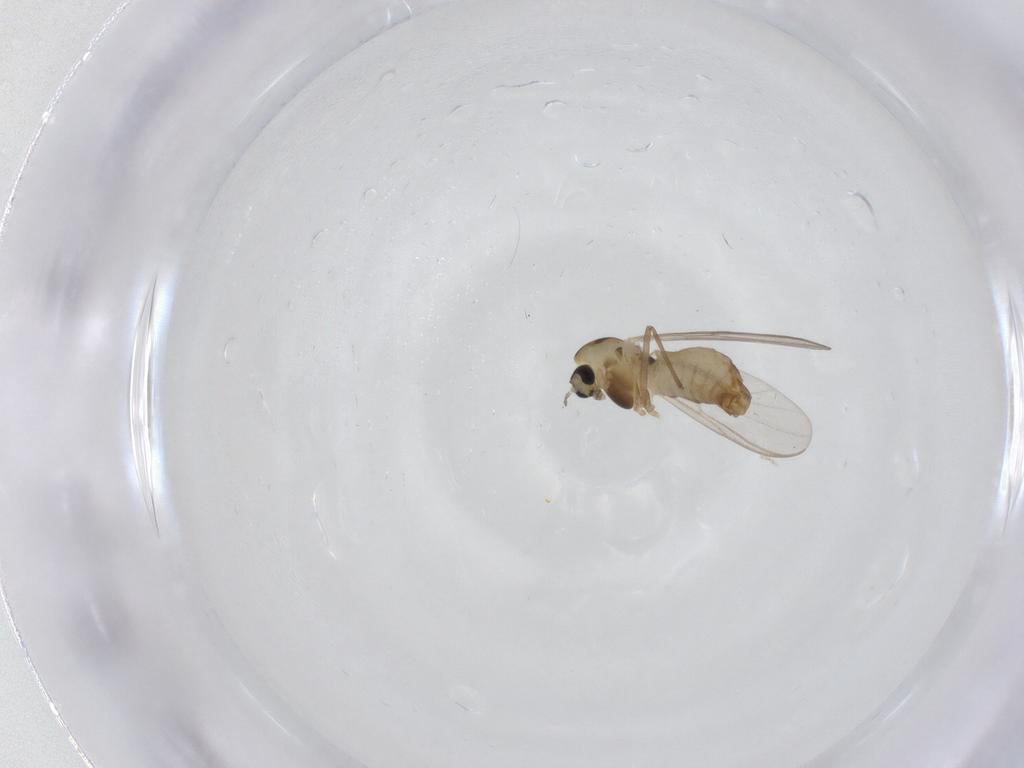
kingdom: Animalia
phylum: Arthropoda
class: Insecta
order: Diptera
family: Chironomidae
